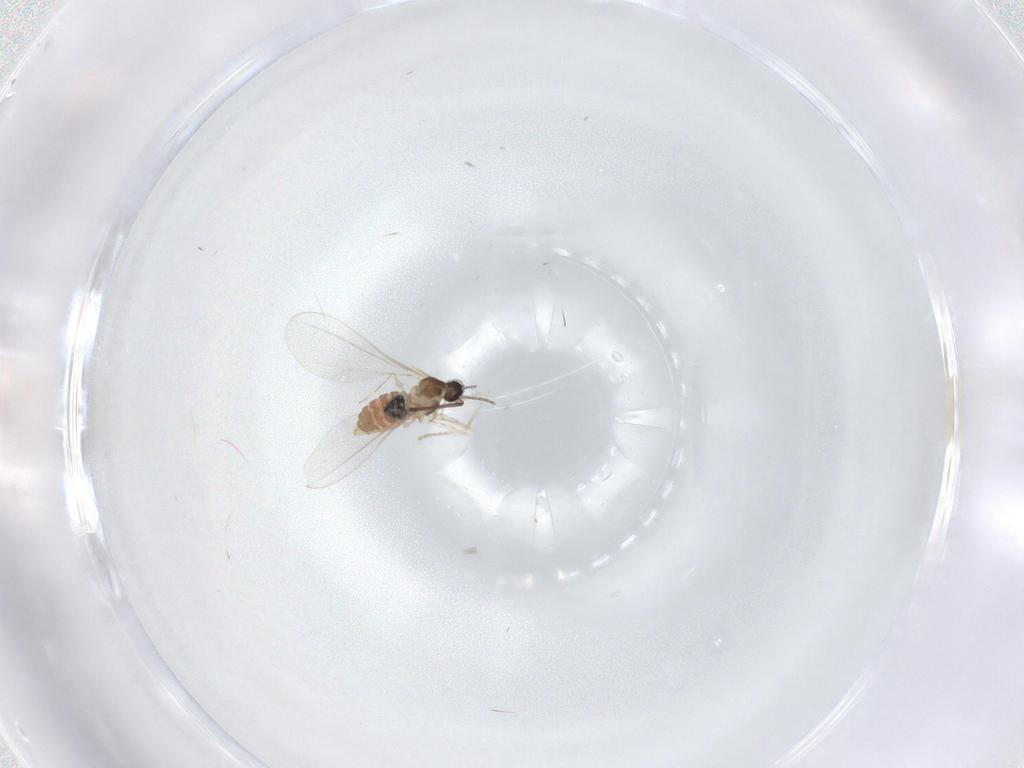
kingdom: Animalia
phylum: Arthropoda
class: Insecta
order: Diptera
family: Cecidomyiidae
